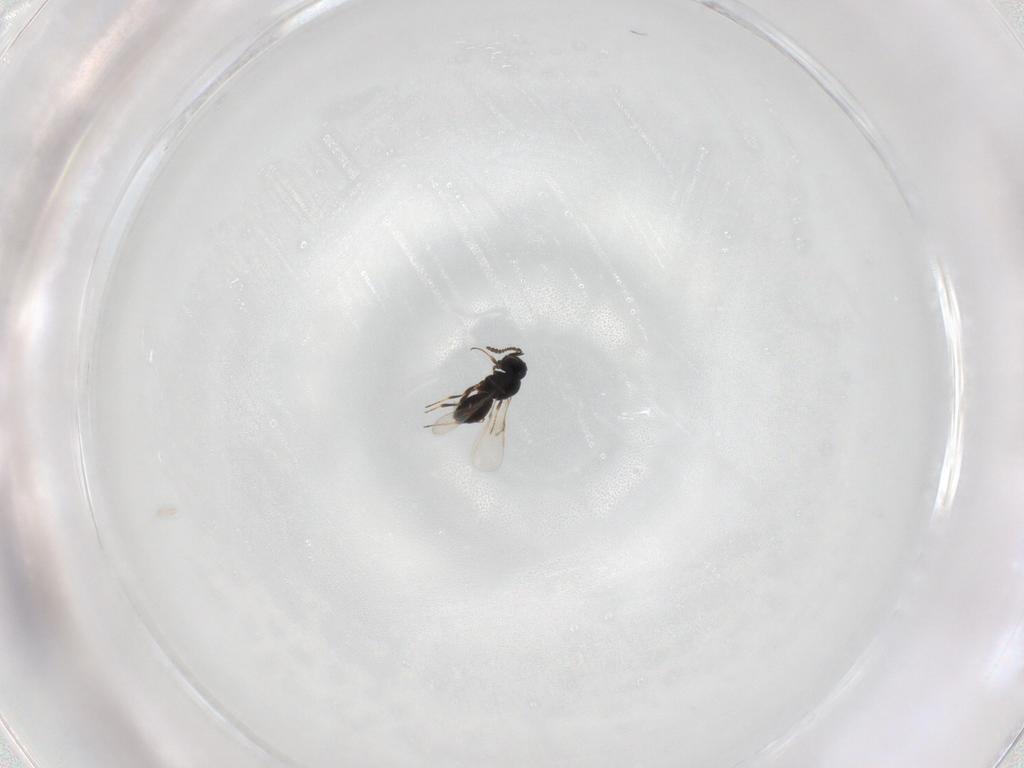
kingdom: Animalia
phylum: Arthropoda
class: Insecta
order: Hymenoptera
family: Scelionidae
